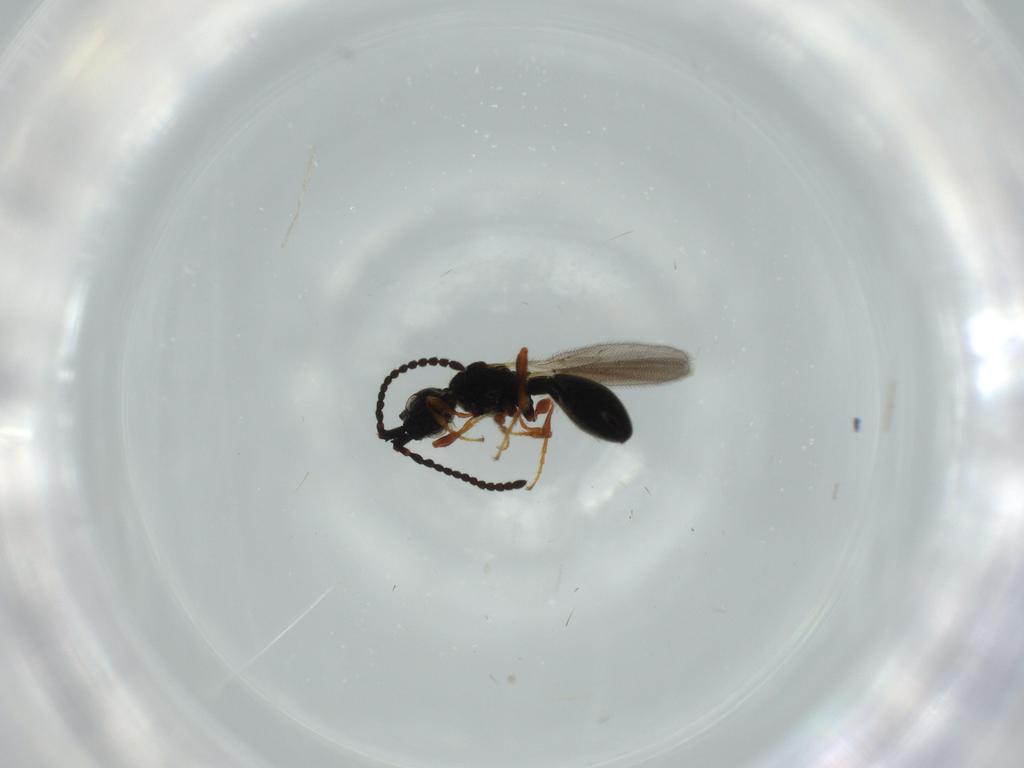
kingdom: Animalia
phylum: Arthropoda
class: Insecta
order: Hymenoptera
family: Diapriidae
